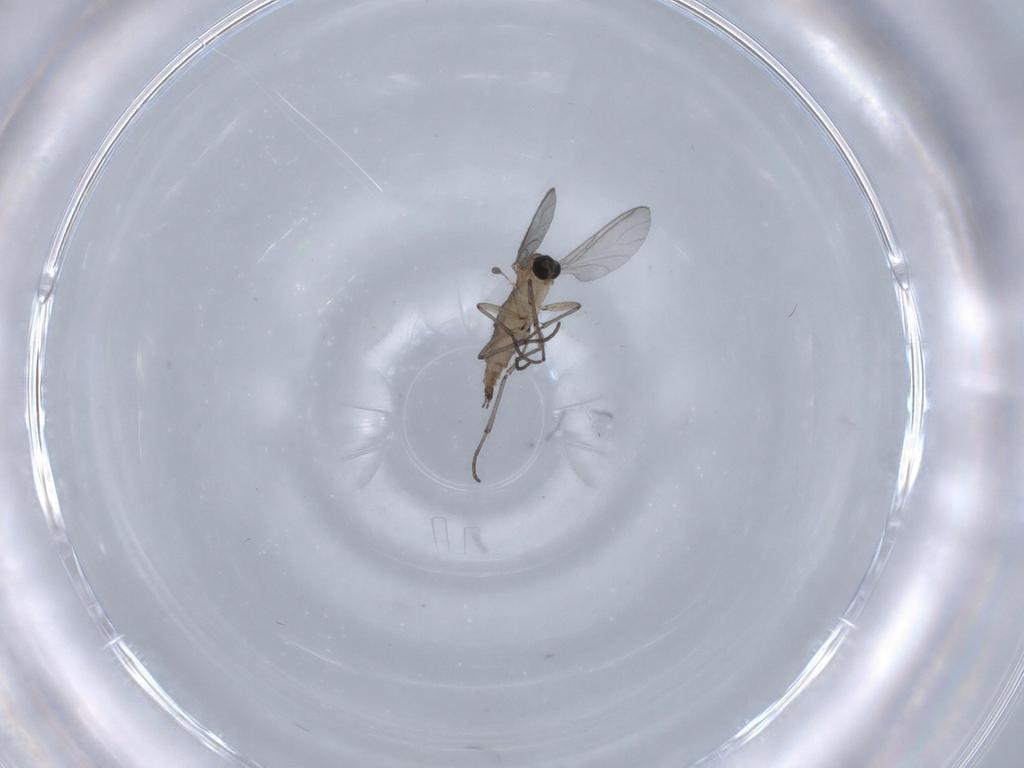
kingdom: Animalia
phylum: Arthropoda
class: Insecta
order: Diptera
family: Sciaridae
